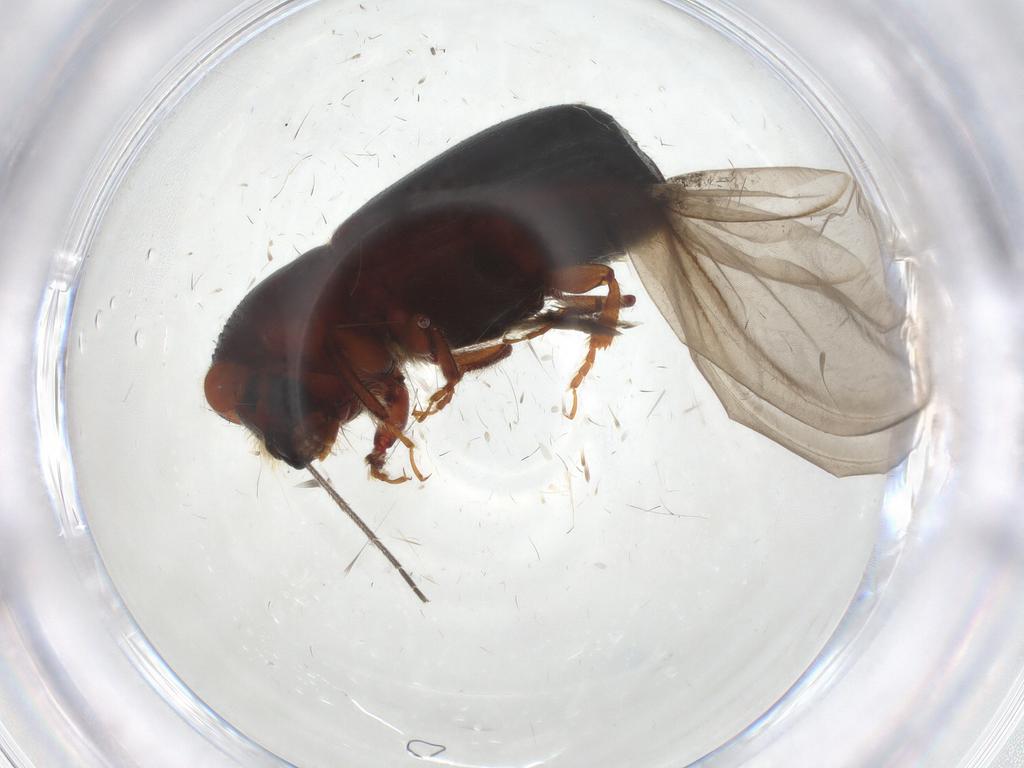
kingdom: Animalia
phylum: Arthropoda
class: Insecta
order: Coleoptera
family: Curculionidae
